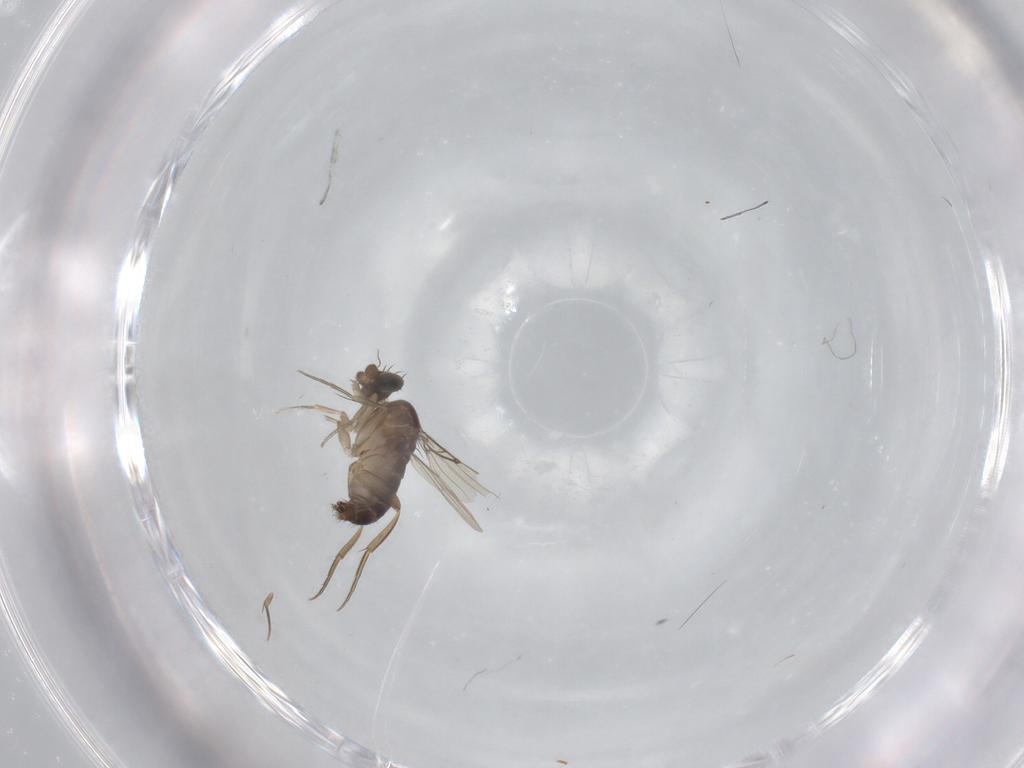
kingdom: Animalia
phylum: Arthropoda
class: Insecta
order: Diptera
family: Phoridae
